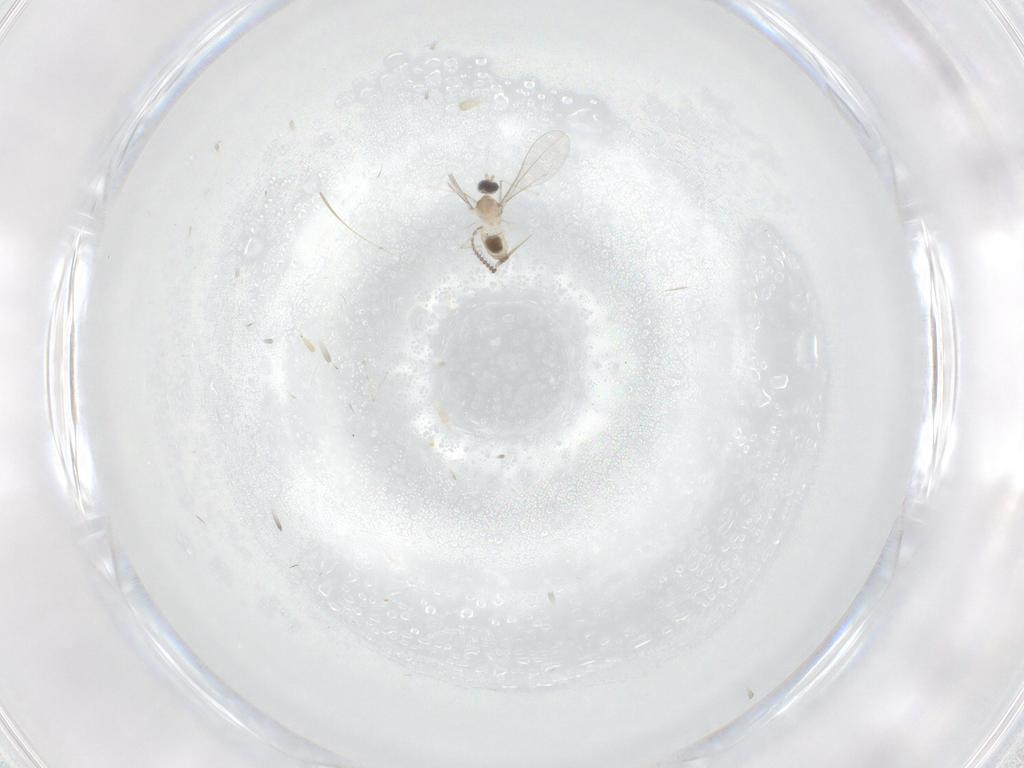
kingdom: Animalia
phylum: Arthropoda
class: Insecta
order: Diptera
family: Cecidomyiidae
